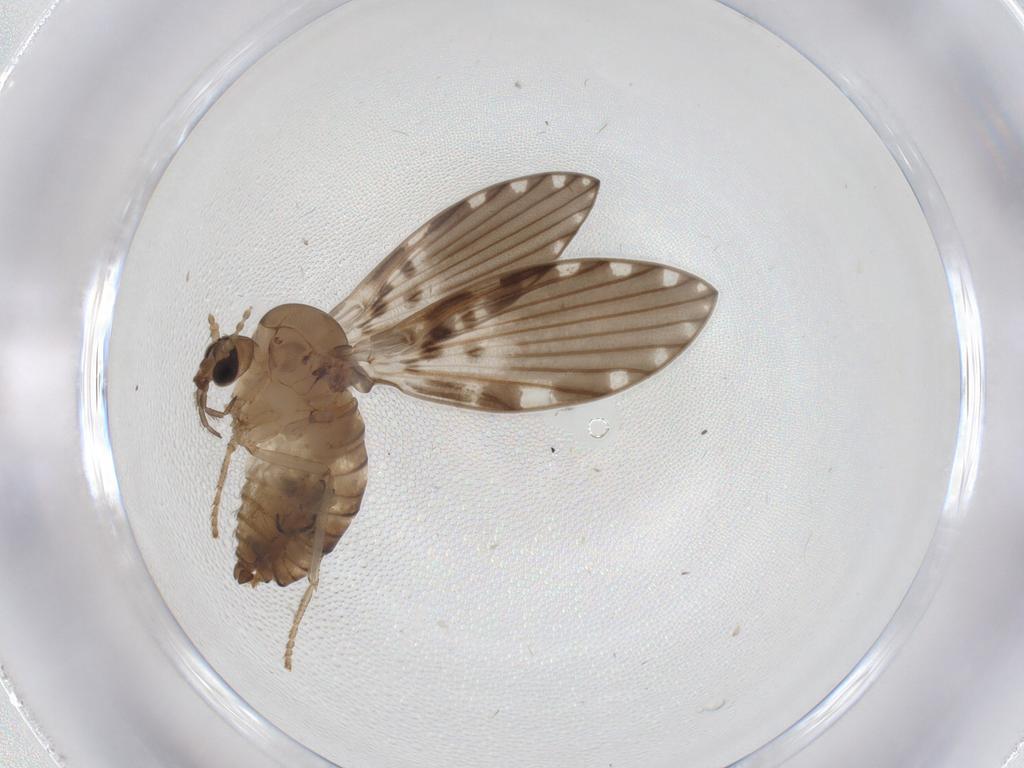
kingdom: Animalia
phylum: Arthropoda
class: Insecta
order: Diptera
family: Psychodidae
